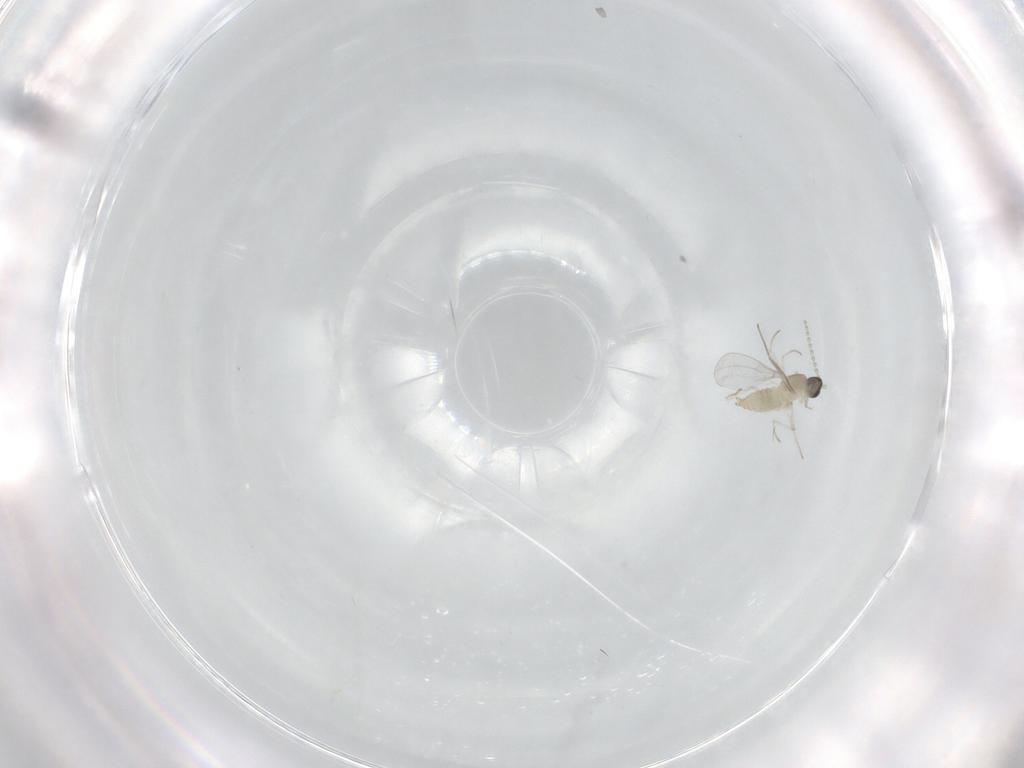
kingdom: Animalia
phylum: Arthropoda
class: Insecta
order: Diptera
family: Cecidomyiidae
